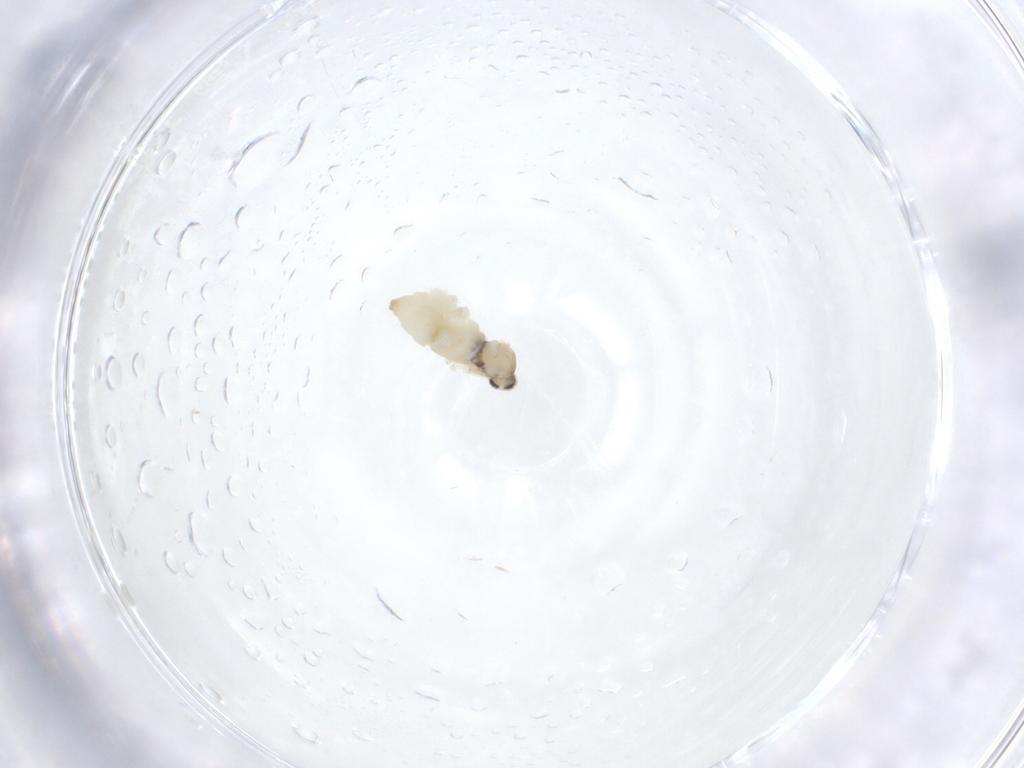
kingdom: Animalia
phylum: Arthropoda
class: Insecta
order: Diptera
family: Cecidomyiidae
